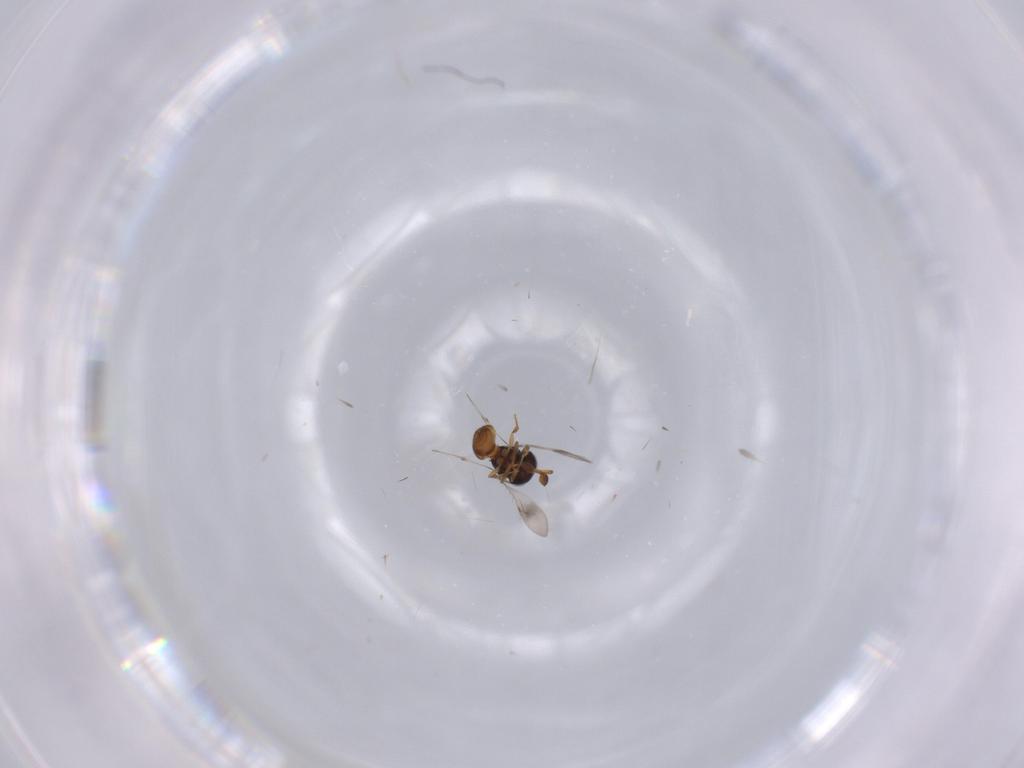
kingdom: Animalia
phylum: Arthropoda
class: Insecta
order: Hymenoptera
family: Scelionidae
